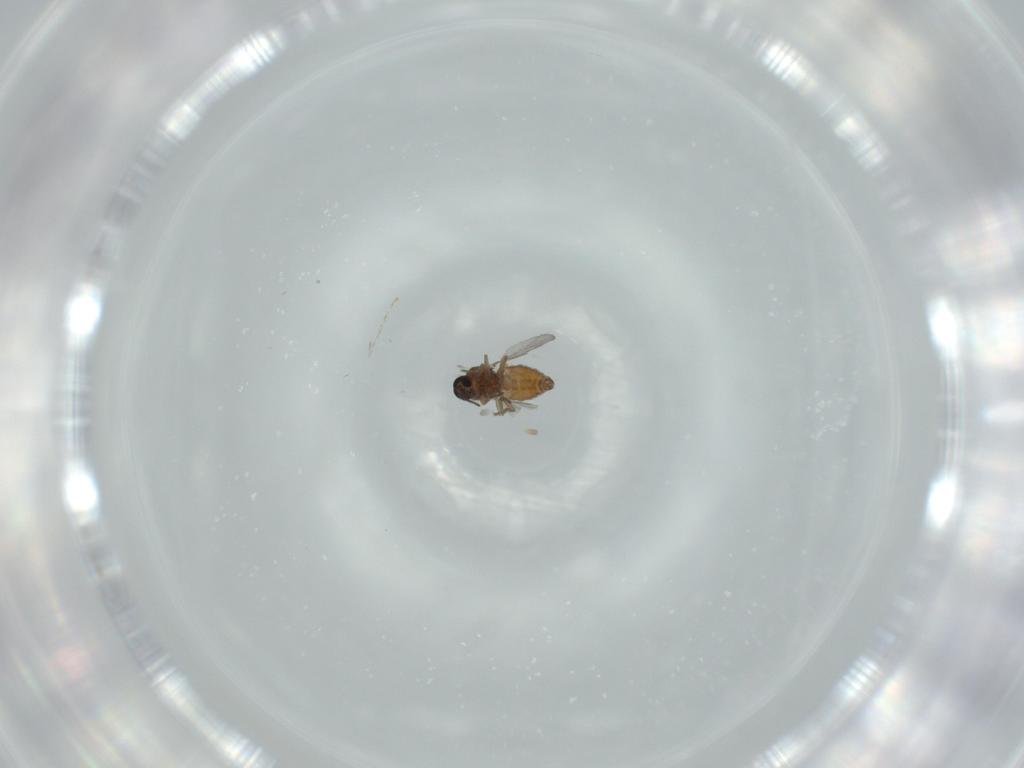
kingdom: Animalia
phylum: Arthropoda
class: Insecta
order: Diptera
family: Ceratopogonidae
